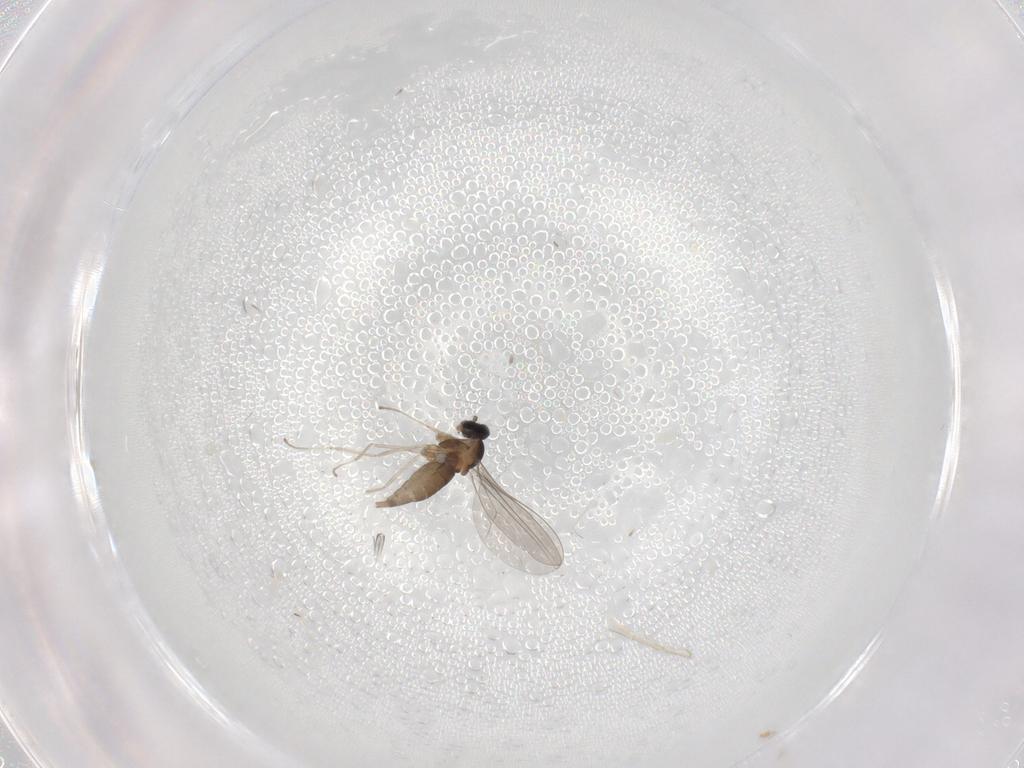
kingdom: Animalia
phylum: Arthropoda
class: Insecta
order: Diptera
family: Cecidomyiidae
